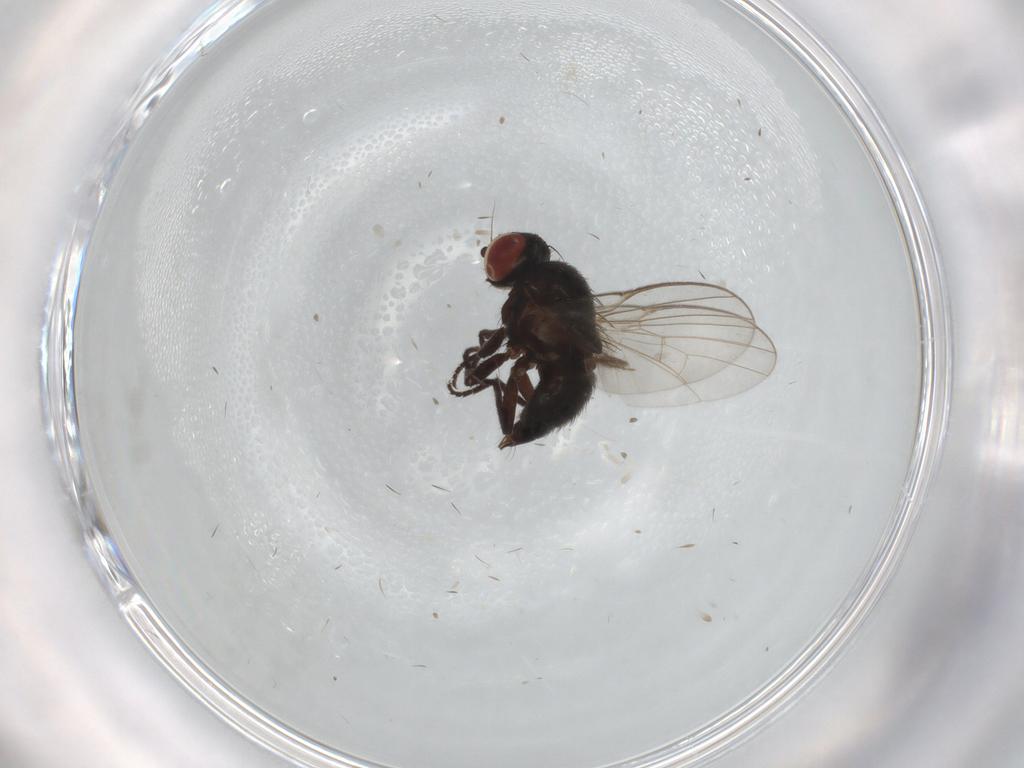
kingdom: Animalia
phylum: Arthropoda
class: Insecta
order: Diptera
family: Agromyzidae
